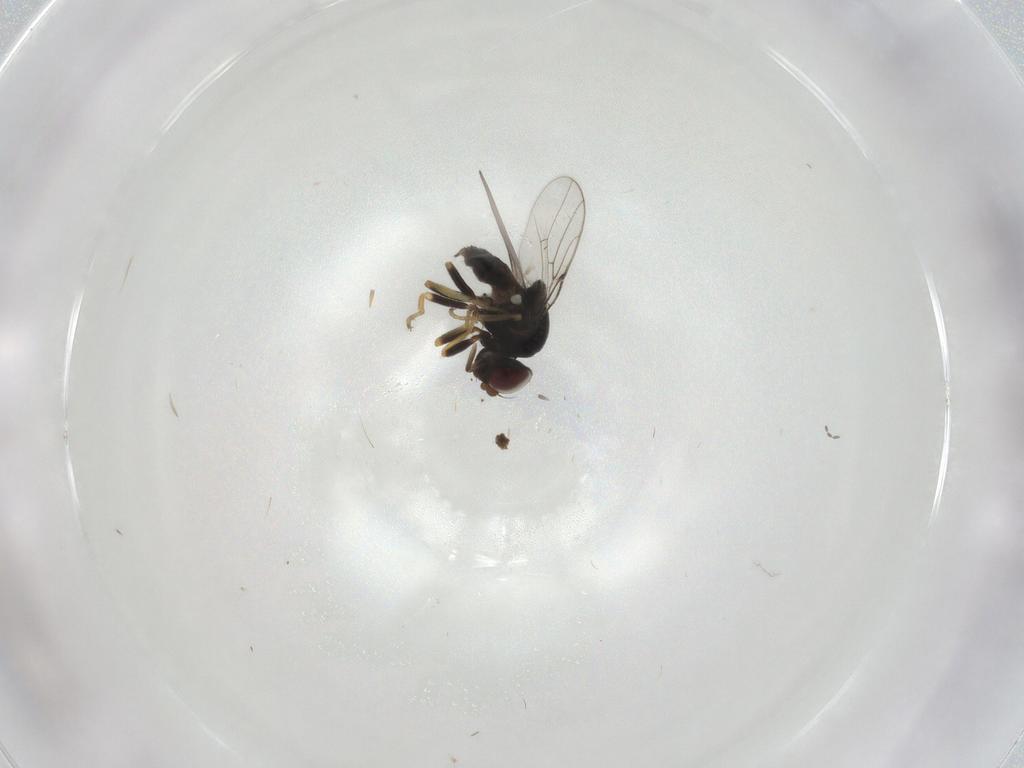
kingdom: Animalia
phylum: Arthropoda
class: Insecta
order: Diptera
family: Chloropidae
